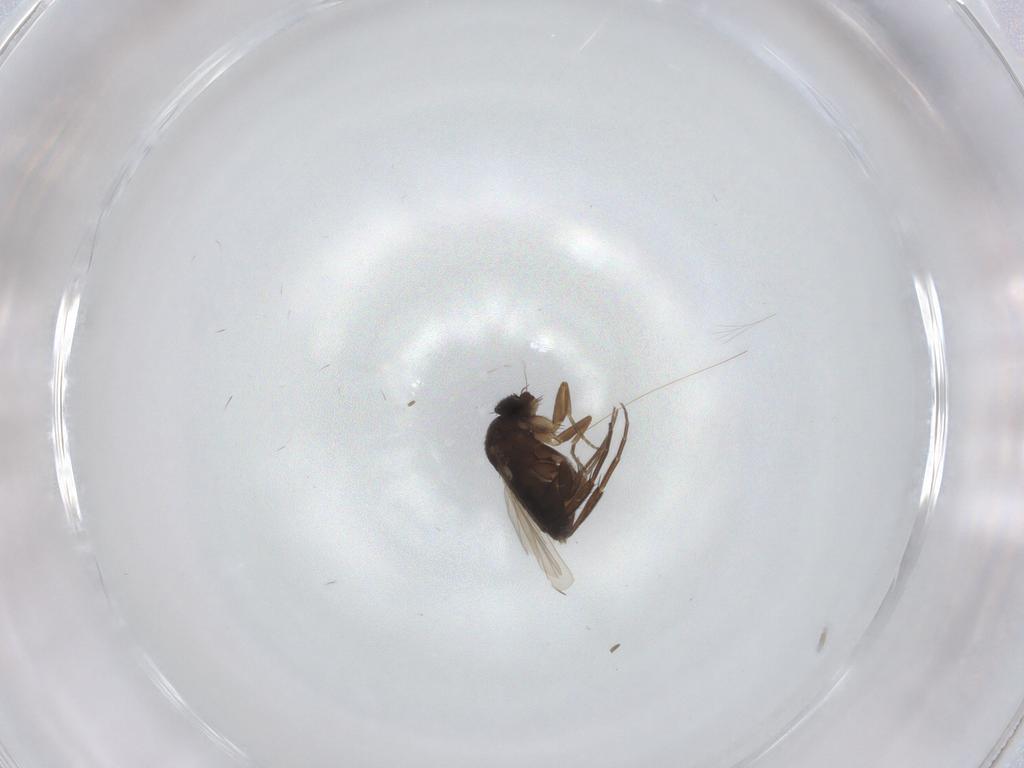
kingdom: Animalia
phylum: Arthropoda
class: Insecta
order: Diptera
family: Phoridae
